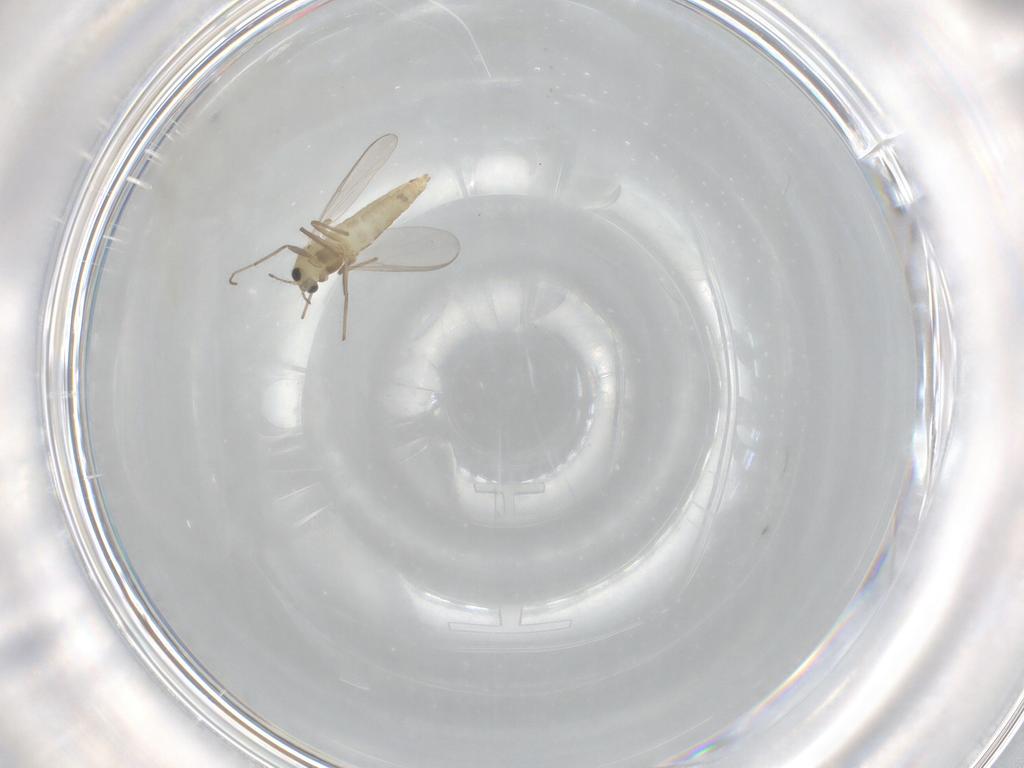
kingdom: Animalia
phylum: Arthropoda
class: Insecta
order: Diptera
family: Chironomidae
